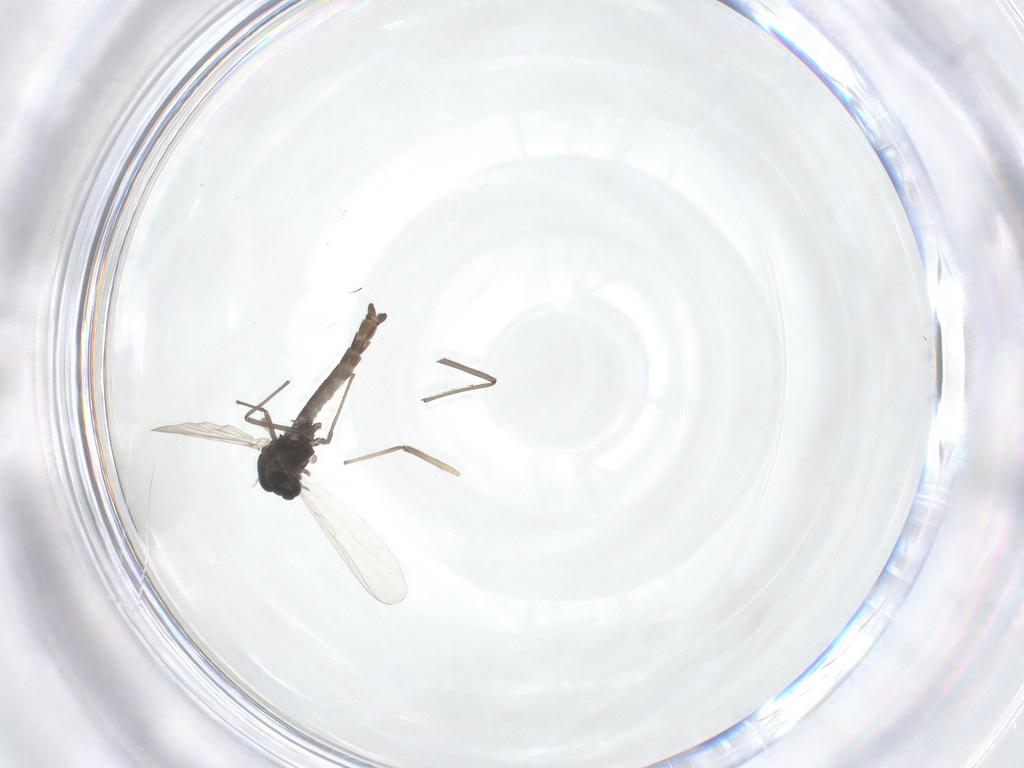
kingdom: Animalia
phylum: Arthropoda
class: Insecta
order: Diptera
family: Chironomidae
